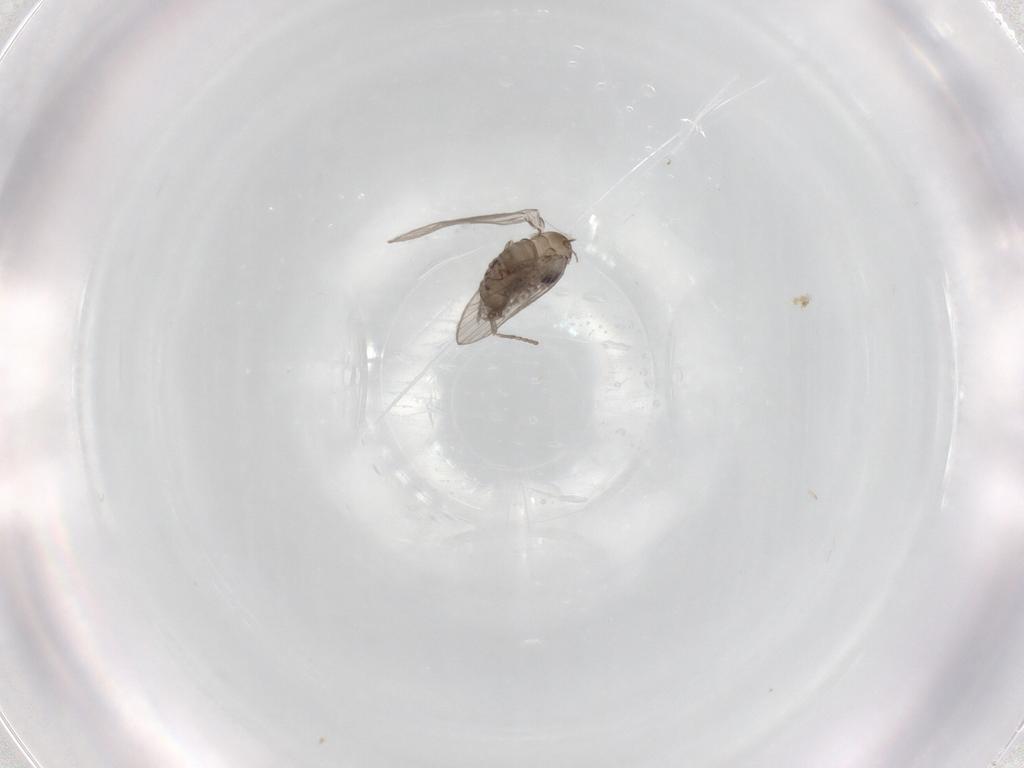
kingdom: Animalia
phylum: Arthropoda
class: Insecta
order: Diptera
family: Psychodidae
